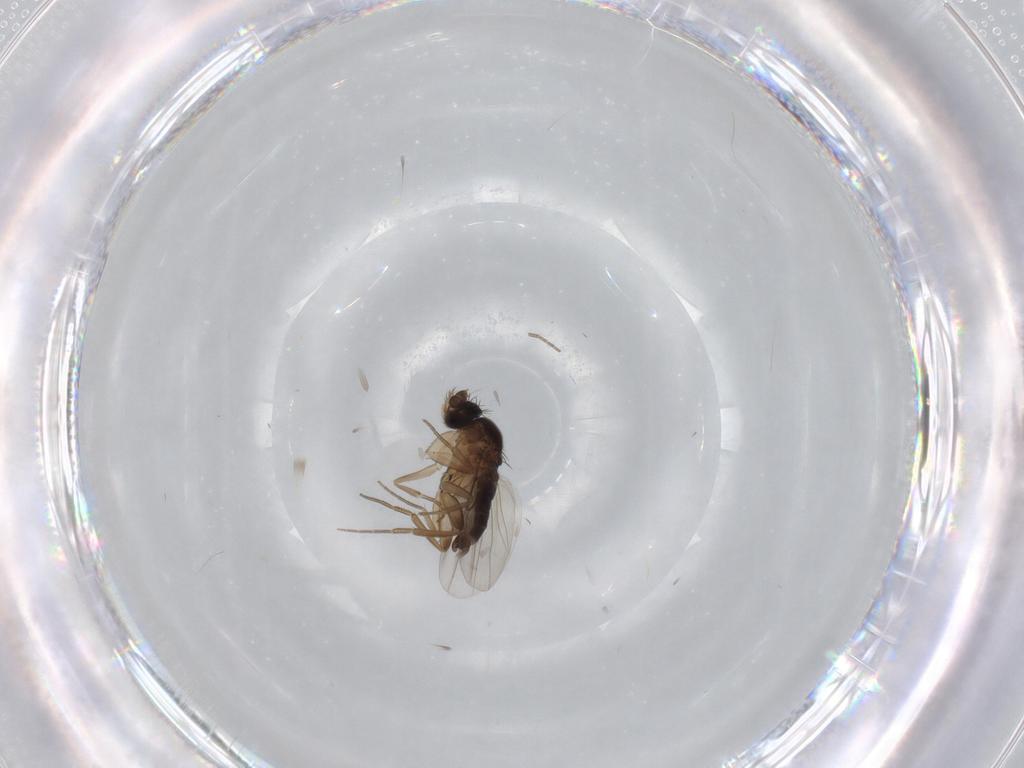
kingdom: Animalia
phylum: Arthropoda
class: Insecta
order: Diptera
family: Phoridae
